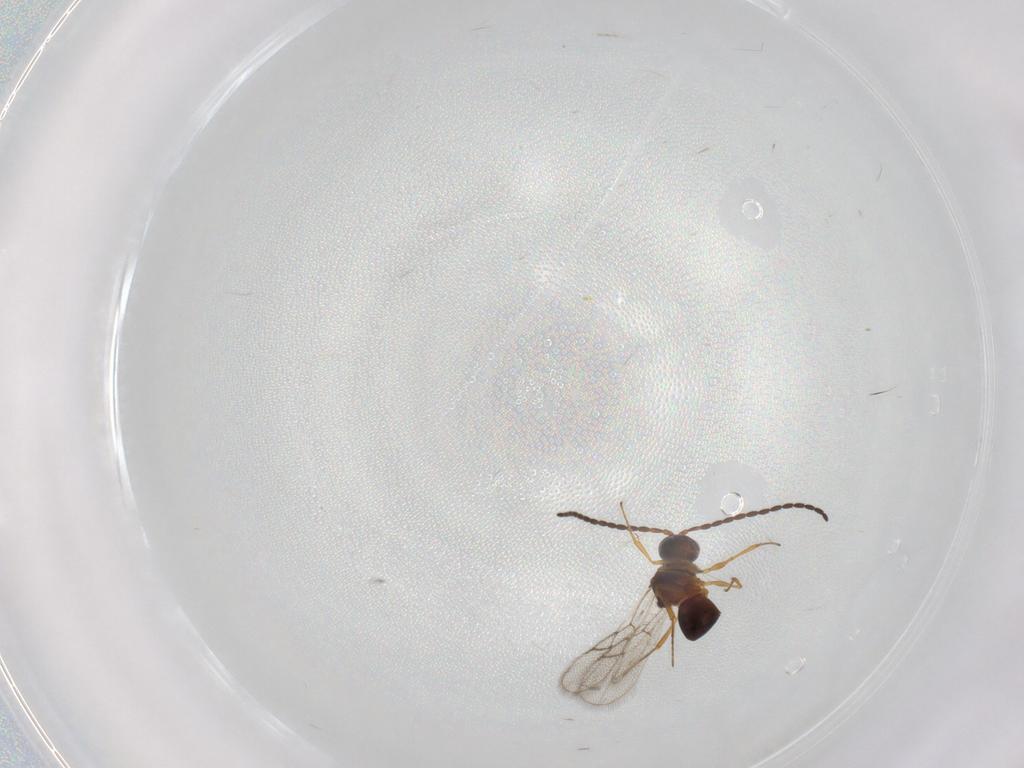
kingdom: Animalia
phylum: Arthropoda
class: Insecta
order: Hymenoptera
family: Figitidae
